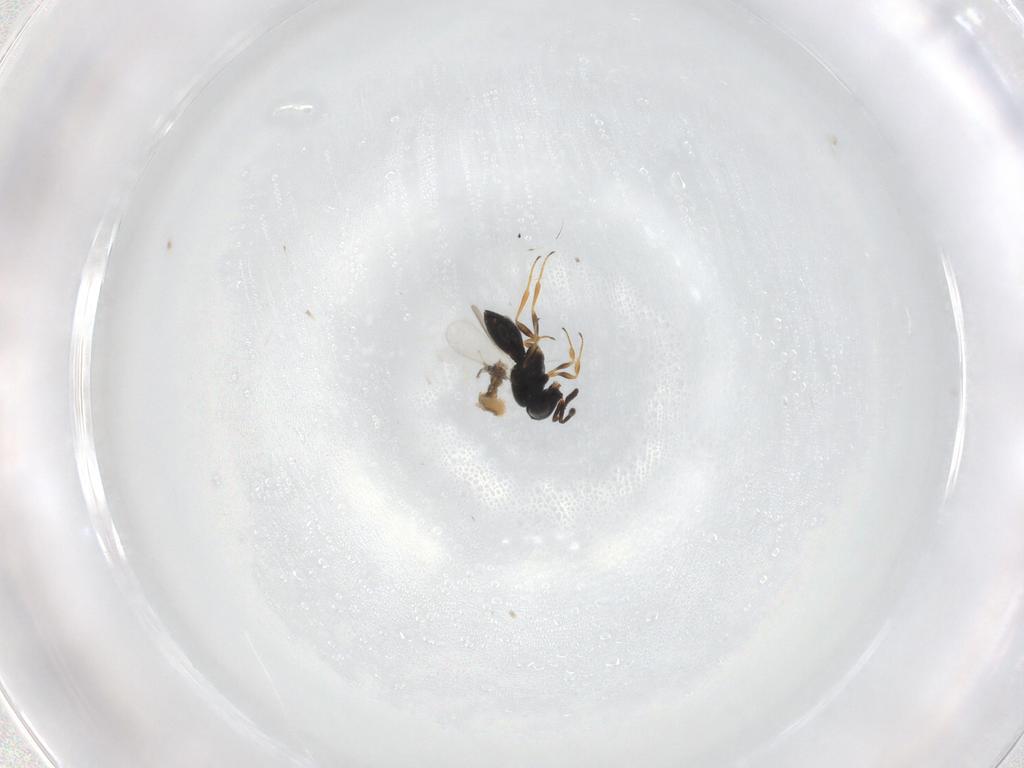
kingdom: Animalia
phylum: Arthropoda
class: Insecta
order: Hymenoptera
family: Scelionidae
